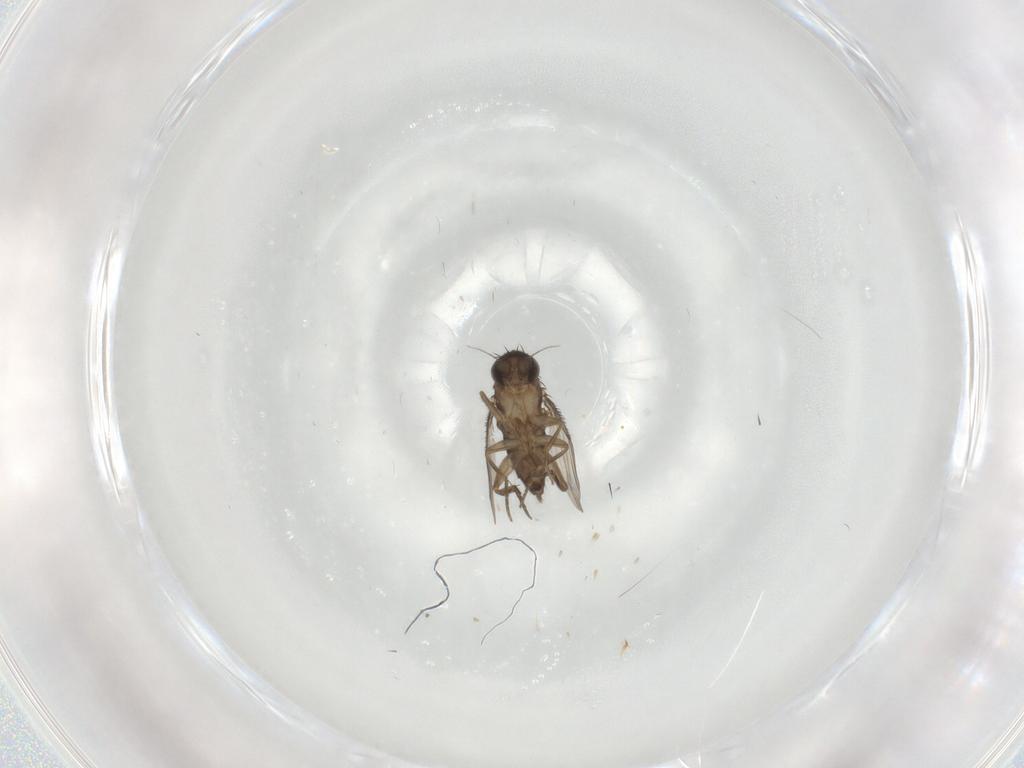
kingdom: Animalia
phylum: Arthropoda
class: Insecta
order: Diptera
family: Phoridae
